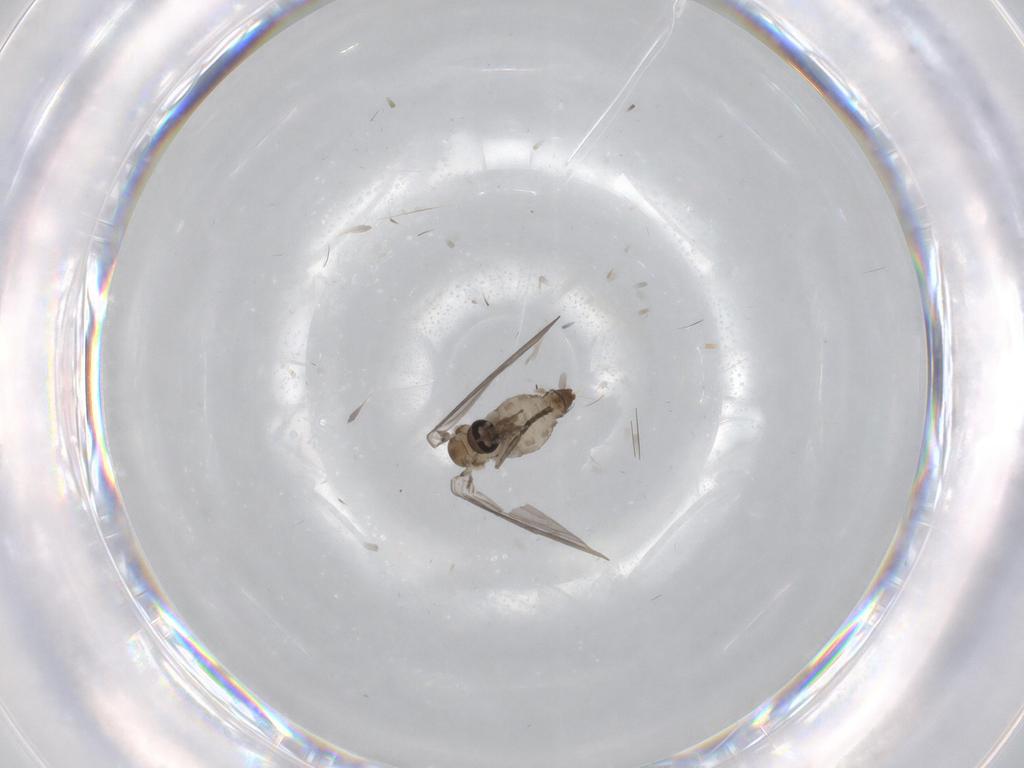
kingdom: Animalia
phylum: Arthropoda
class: Insecta
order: Diptera
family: Psychodidae
